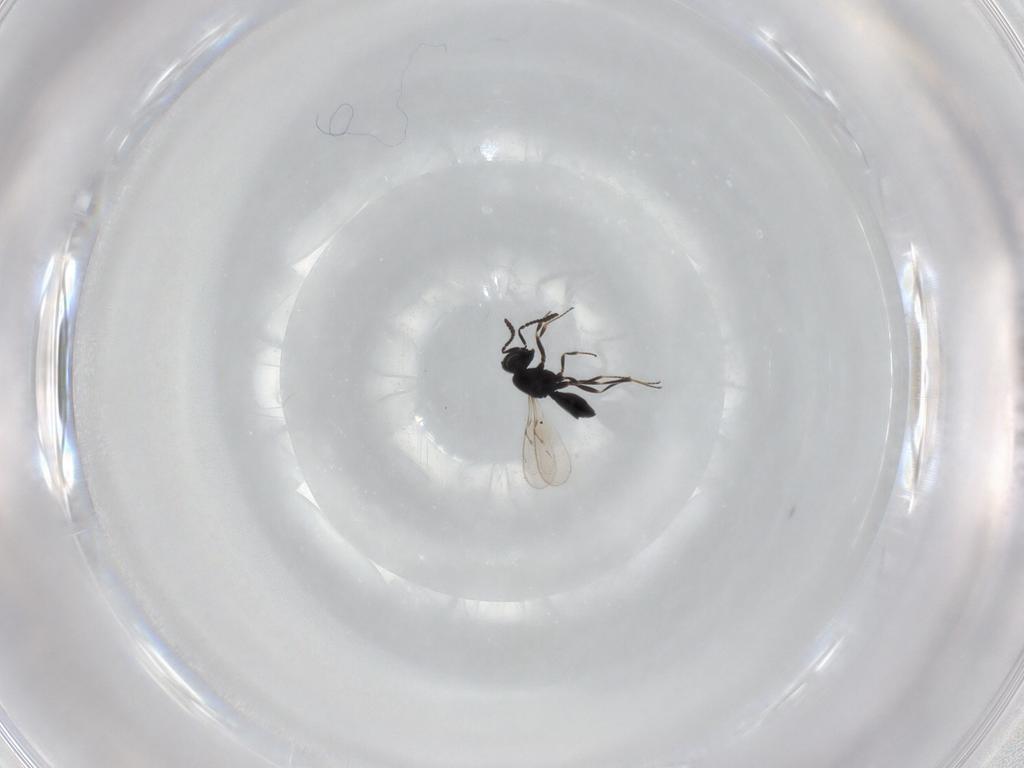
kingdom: Animalia
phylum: Arthropoda
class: Insecta
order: Hymenoptera
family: Scelionidae
